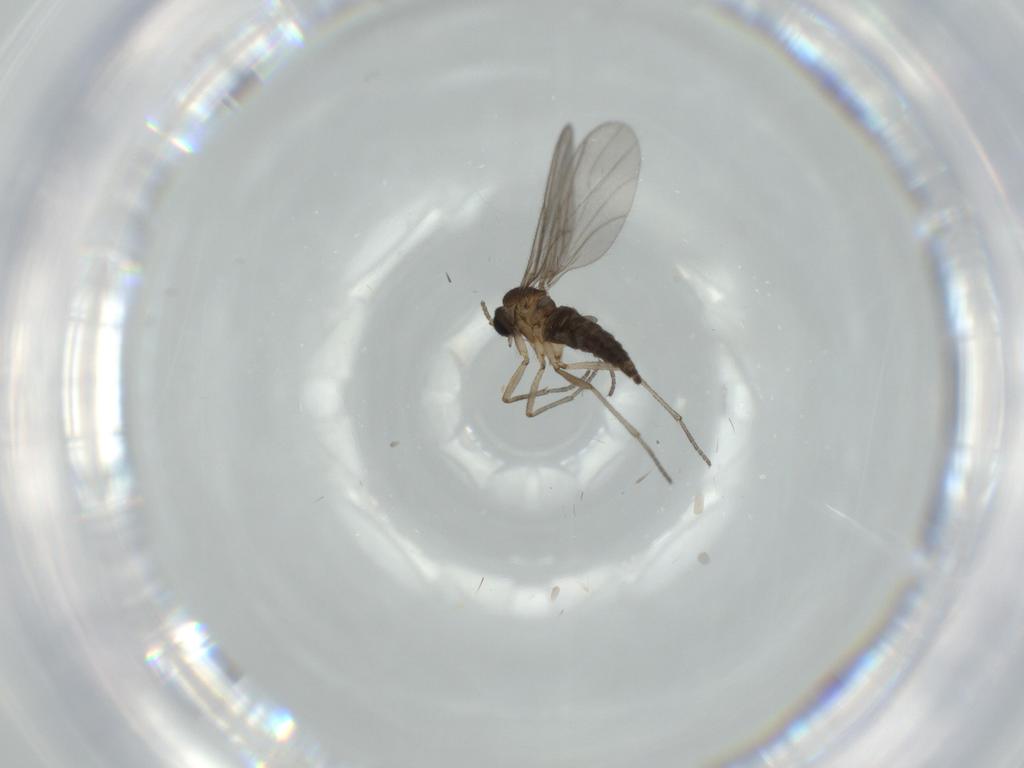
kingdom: Animalia
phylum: Arthropoda
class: Insecta
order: Diptera
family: Sciaridae
